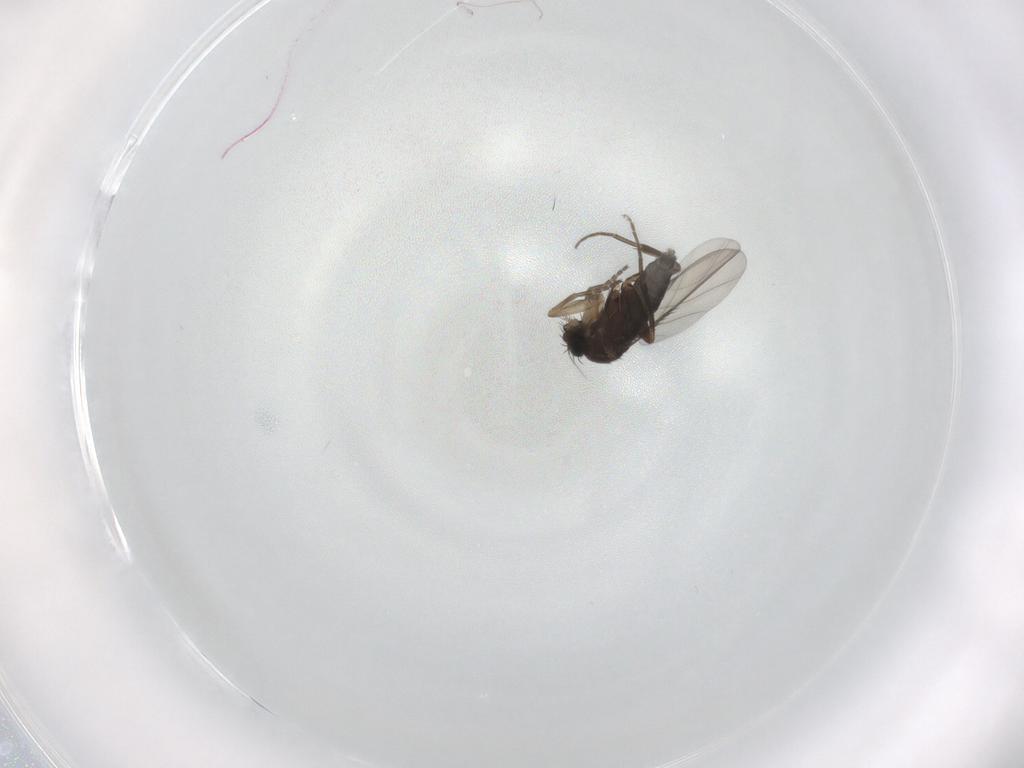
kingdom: Animalia
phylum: Arthropoda
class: Insecta
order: Diptera
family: Phoridae
